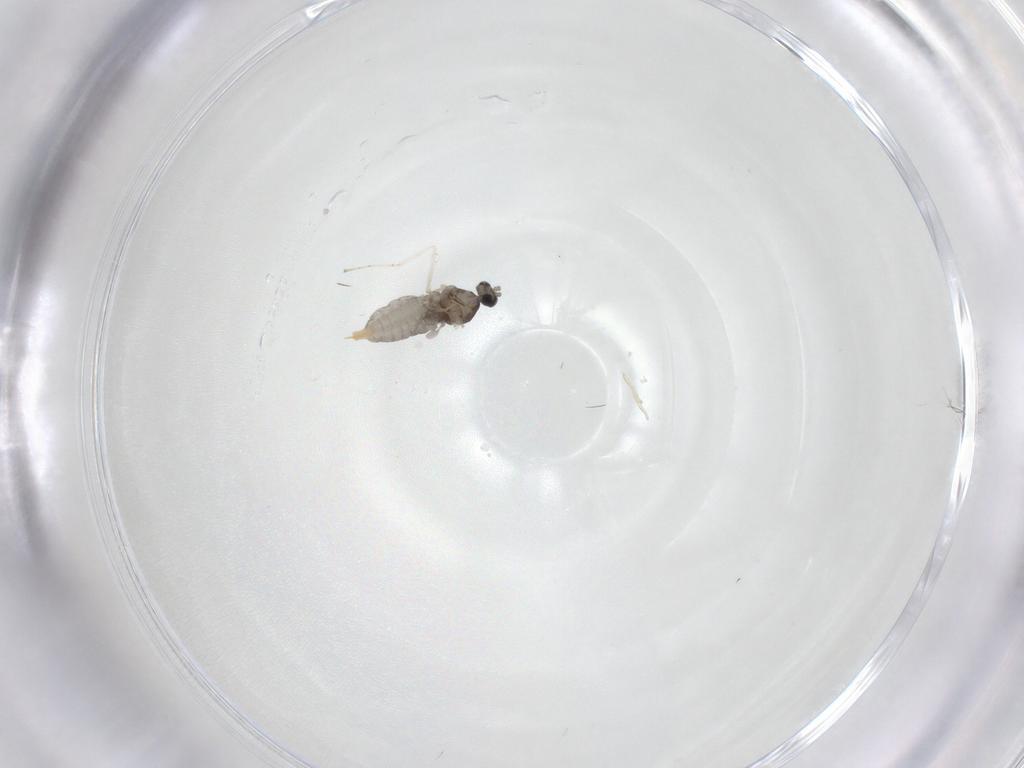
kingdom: Animalia
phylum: Arthropoda
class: Insecta
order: Diptera
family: Cecidomyiidae
